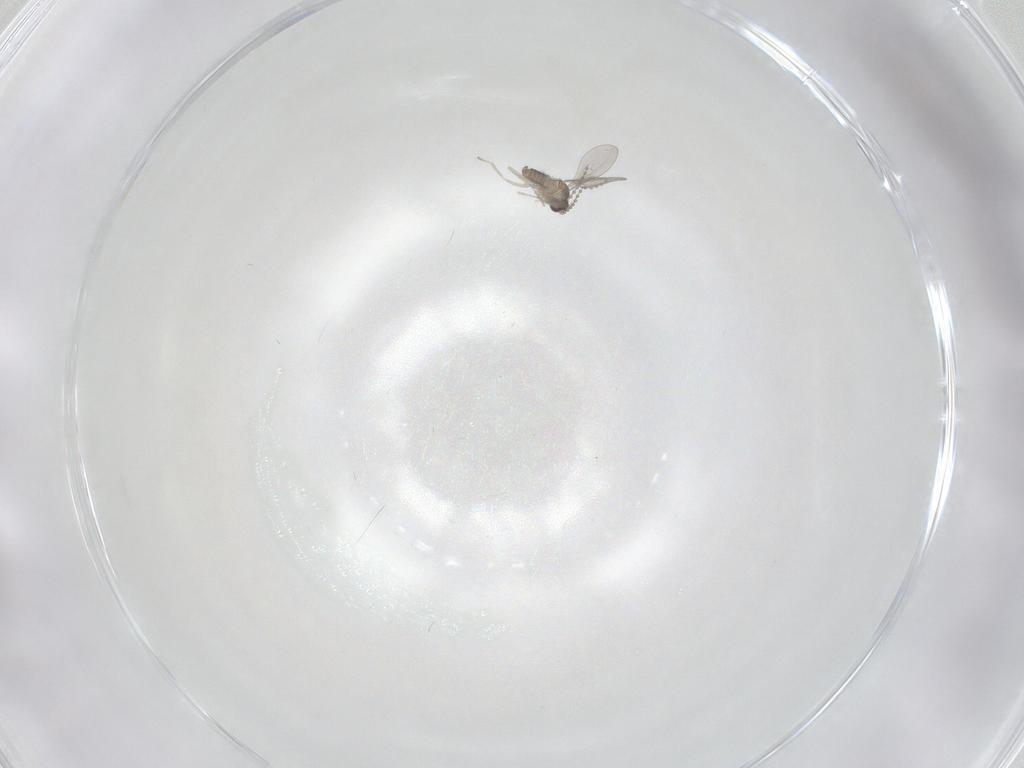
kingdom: Animalia
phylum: Arthropoda
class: Insecta
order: Diptera
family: Cecidomyiidae
